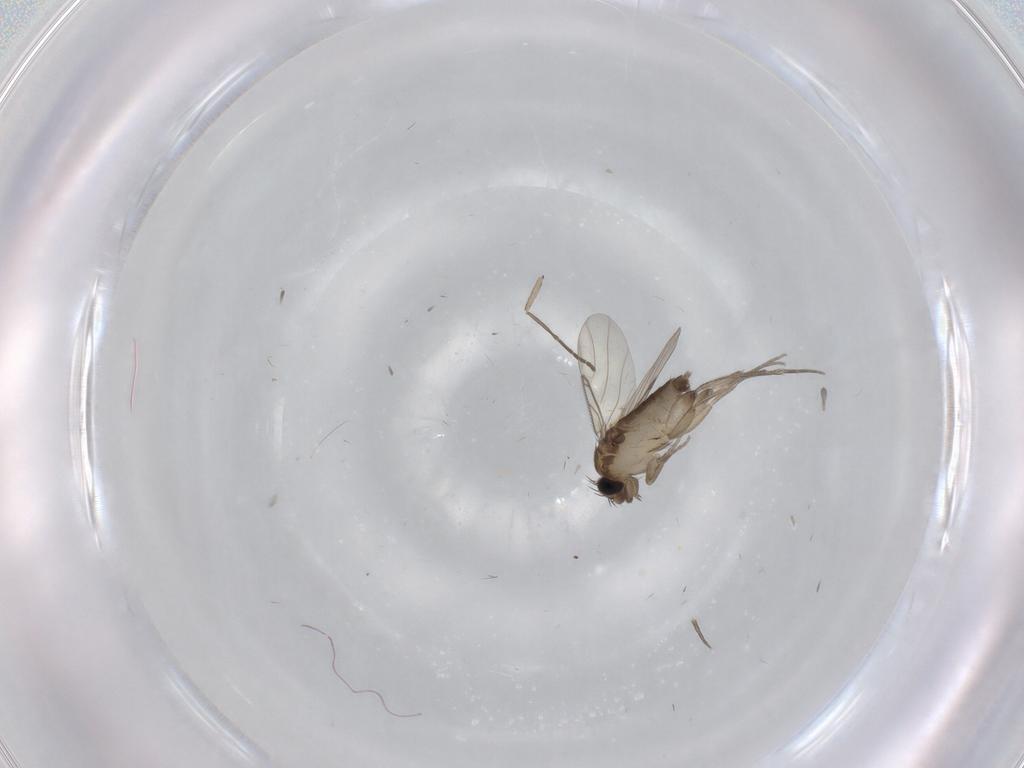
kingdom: Animalia
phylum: Arthropoda
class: Insecta
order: Diptera
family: Sciaridae
